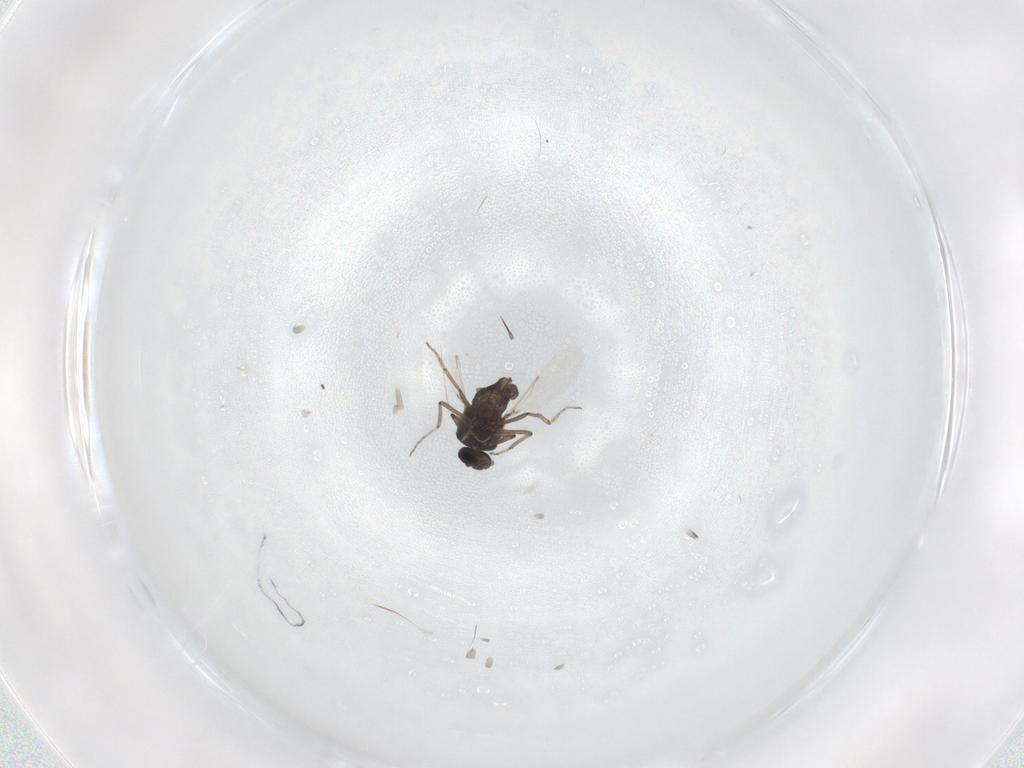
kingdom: Animalia
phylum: Arthropoda
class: Insecta
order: Diptera
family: Ceratopogonidae
